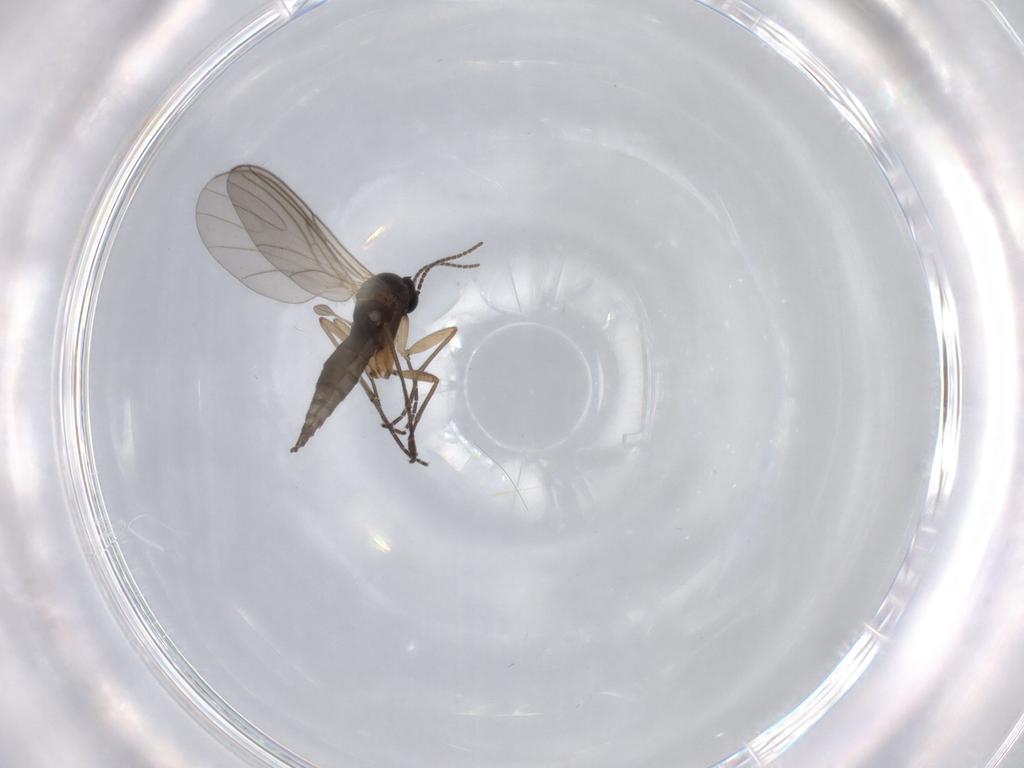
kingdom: Animalia
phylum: Arthropoda
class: Insecta
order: Diptera
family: Sciaridae
